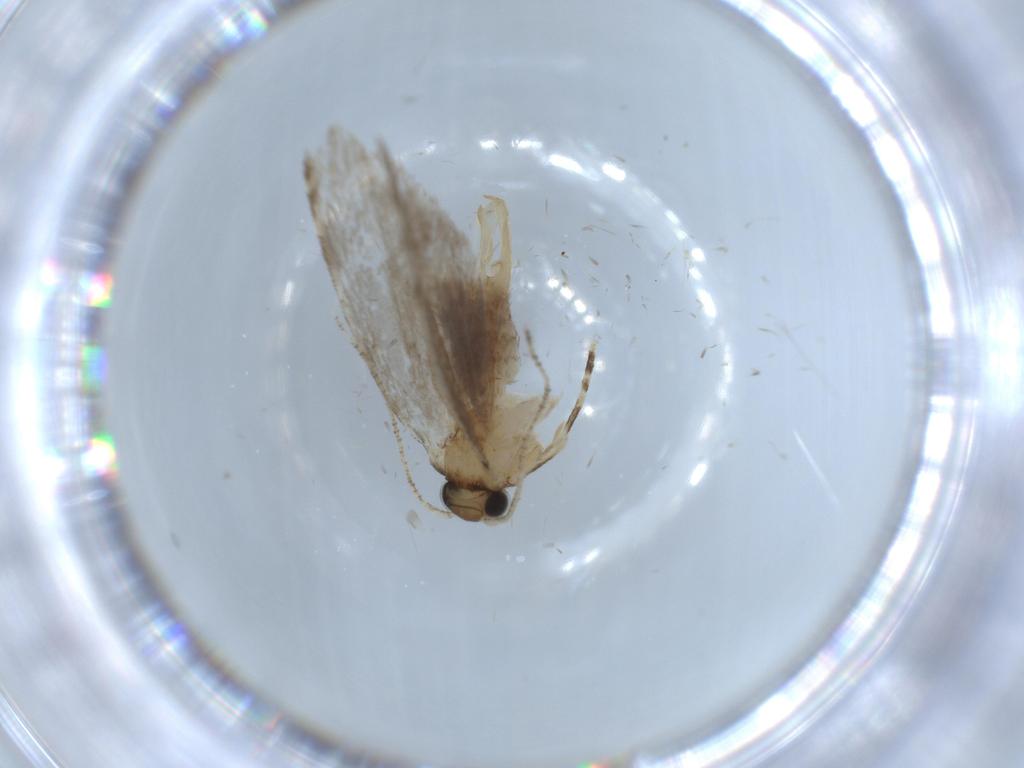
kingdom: Animalia
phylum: Arthropoda
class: Insecta
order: Lepidoptera
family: Tineidae
